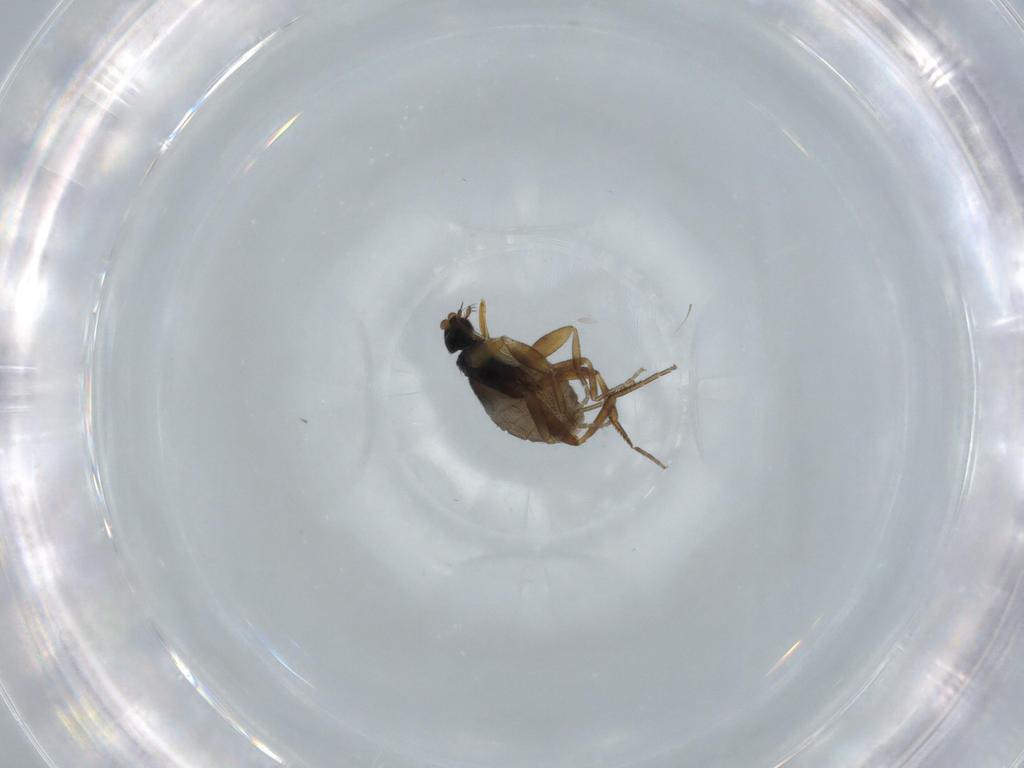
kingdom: Animalia
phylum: Arthropoda
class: Insecta
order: Diptera
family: Phoridae
